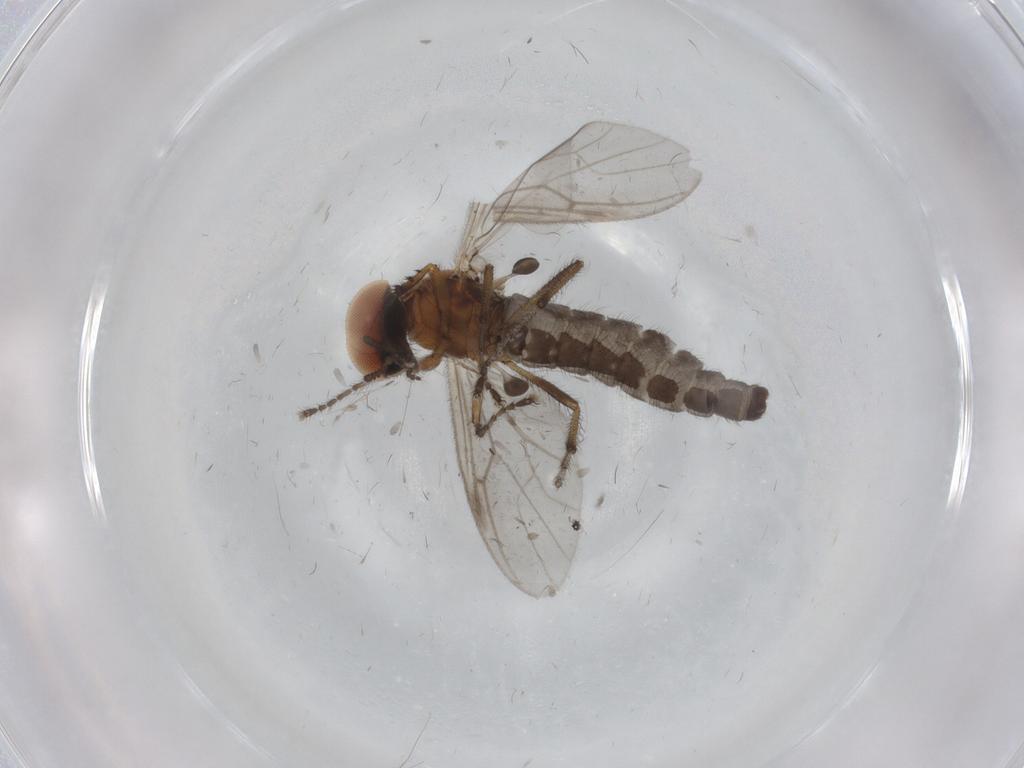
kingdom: Animalia
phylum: Arthropoda
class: Insecta
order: Diptera
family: Bibionidae
